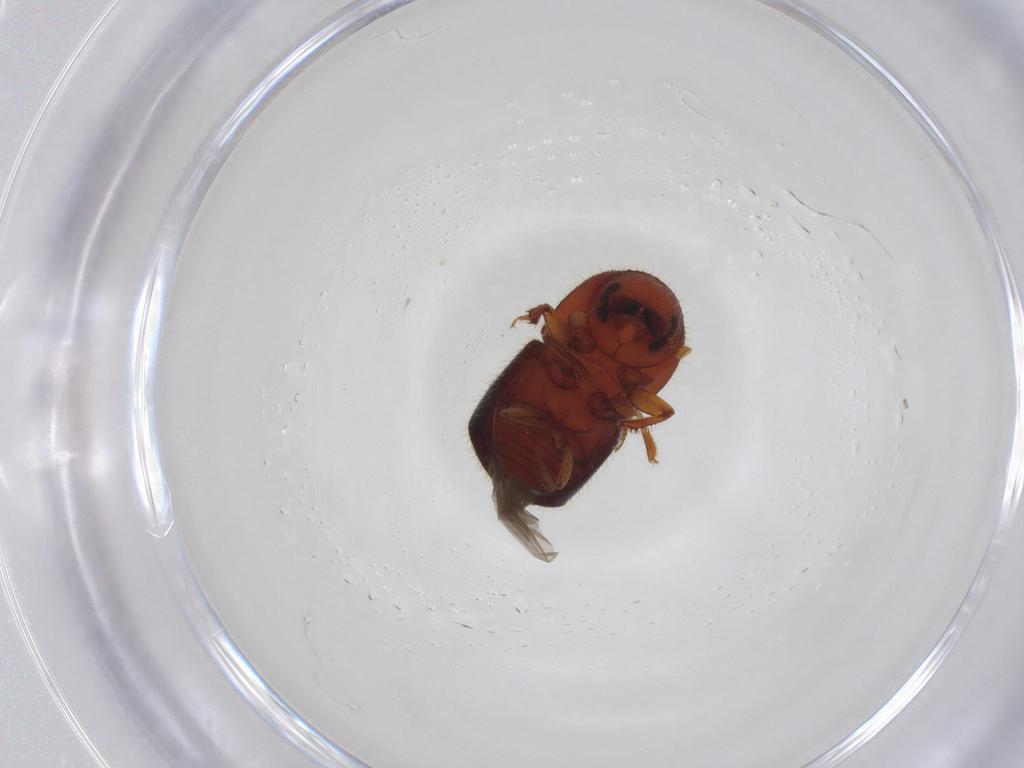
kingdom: Animalia
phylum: Arthropoda
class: Insecta
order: Coleoptera
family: Curculionidae
